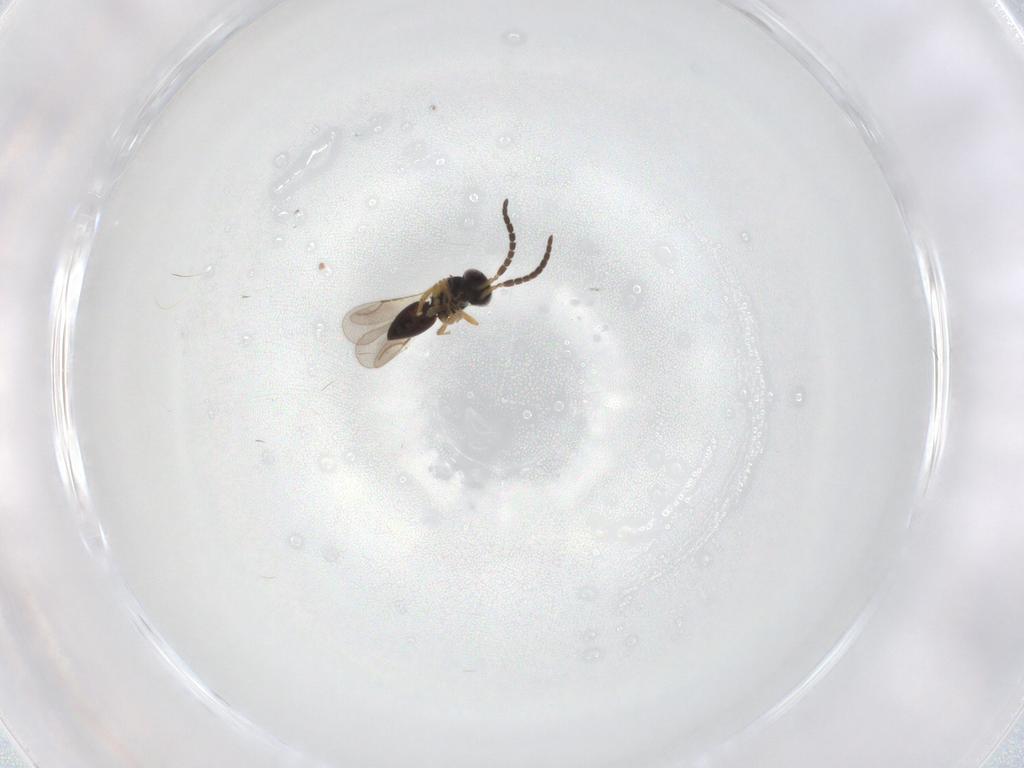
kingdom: Animalia
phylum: Arthropoda
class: Insecta
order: Hymenoptera
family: Ceraphronidae
